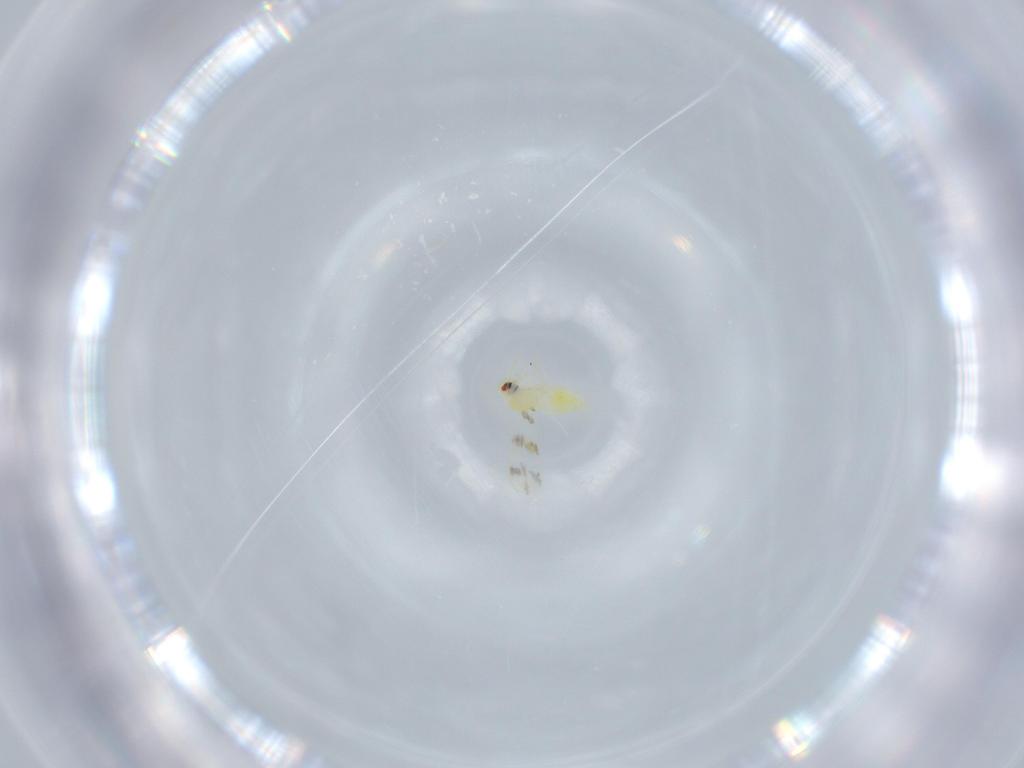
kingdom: Animalia
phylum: Arthropoda
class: Insecta
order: Hemiptera
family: Aleyrodidae
